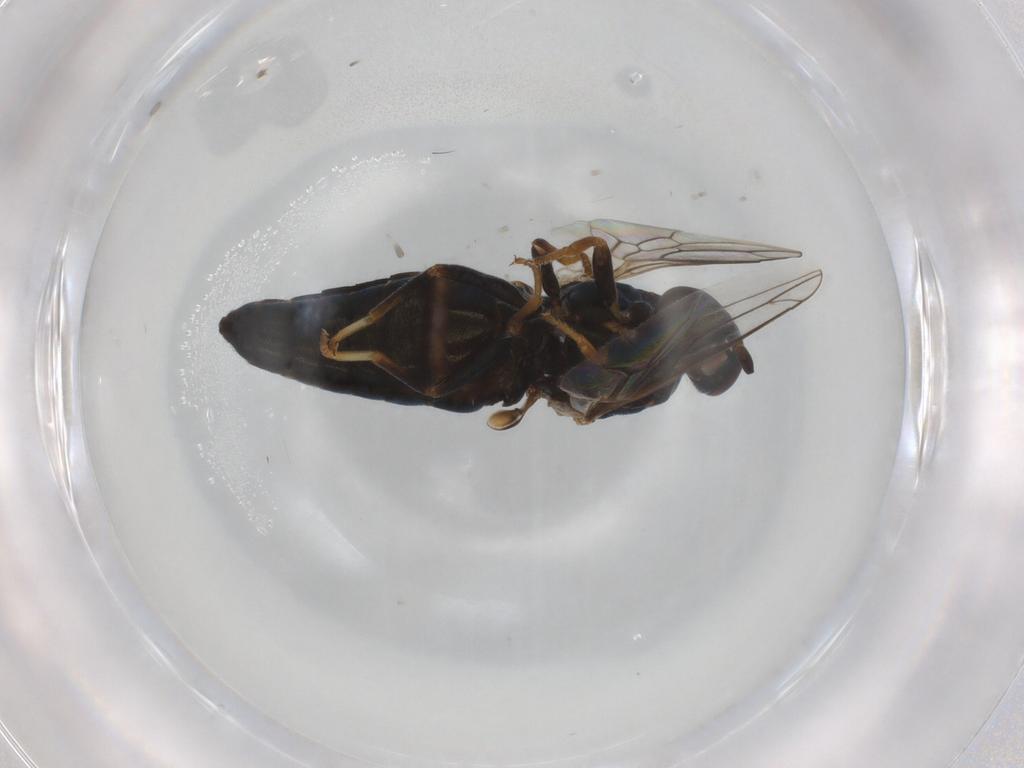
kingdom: Animalia
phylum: Arthropoda
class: Insecta
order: Diptera
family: Scenopinidae
